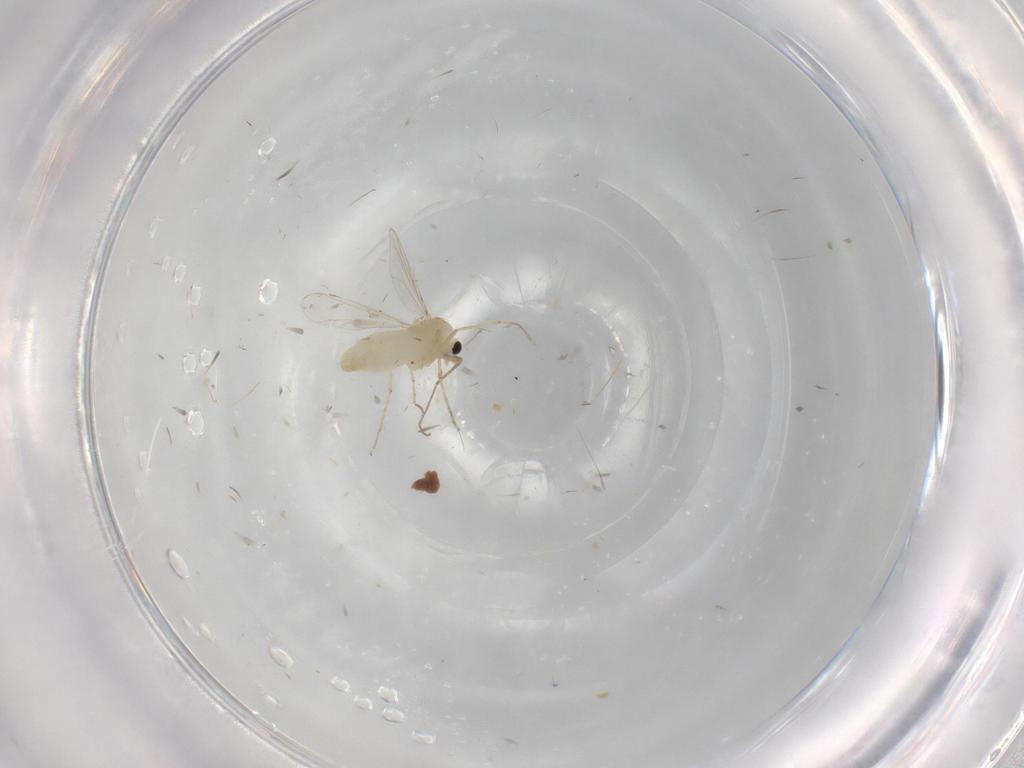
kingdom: Animalia
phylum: Arthropoda
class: Insecta
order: Diptera
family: Chironomidae
